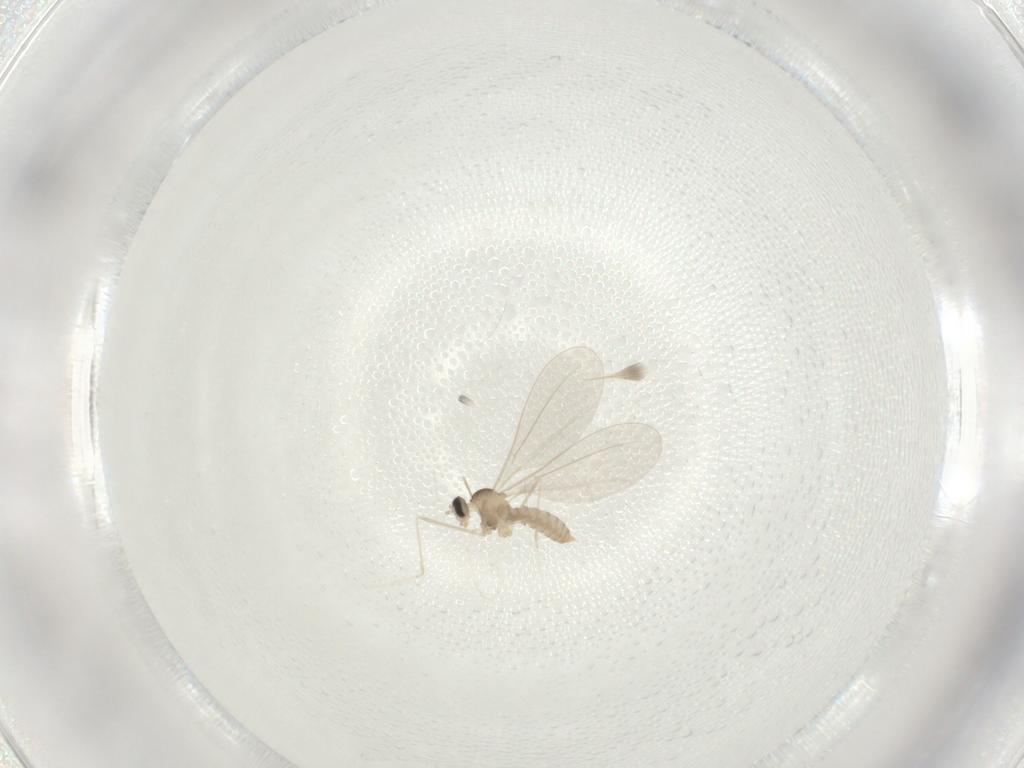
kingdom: Animalia
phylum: Arthropoda
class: Insecta
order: Diptera
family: Cecidomyiidae
